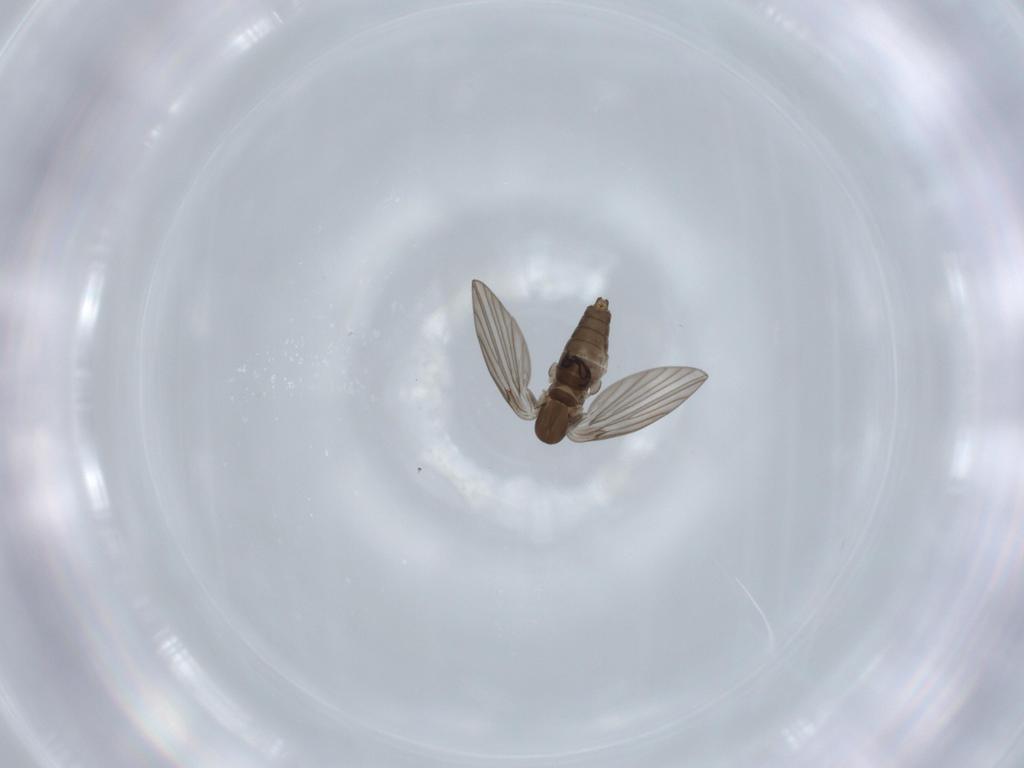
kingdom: Animalia
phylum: Arthropoda
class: Insecta
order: Diptera
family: Psychodidae
